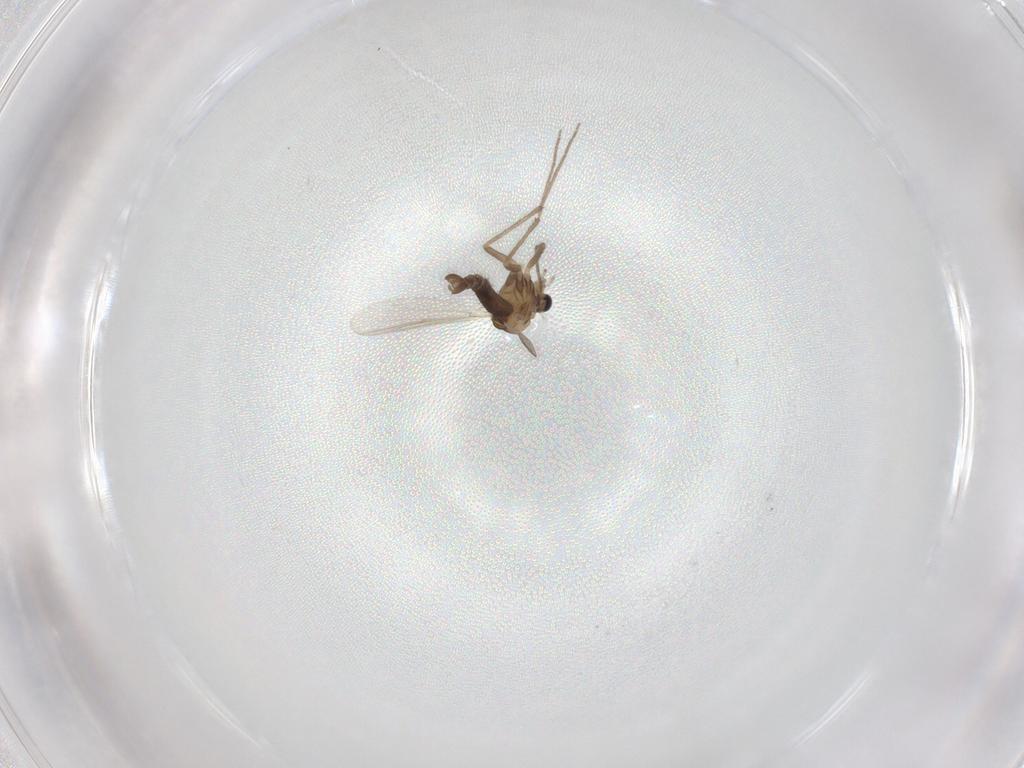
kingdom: Animalia
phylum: Arthropoda
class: Insecta
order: Diptera
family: Chironomidae
